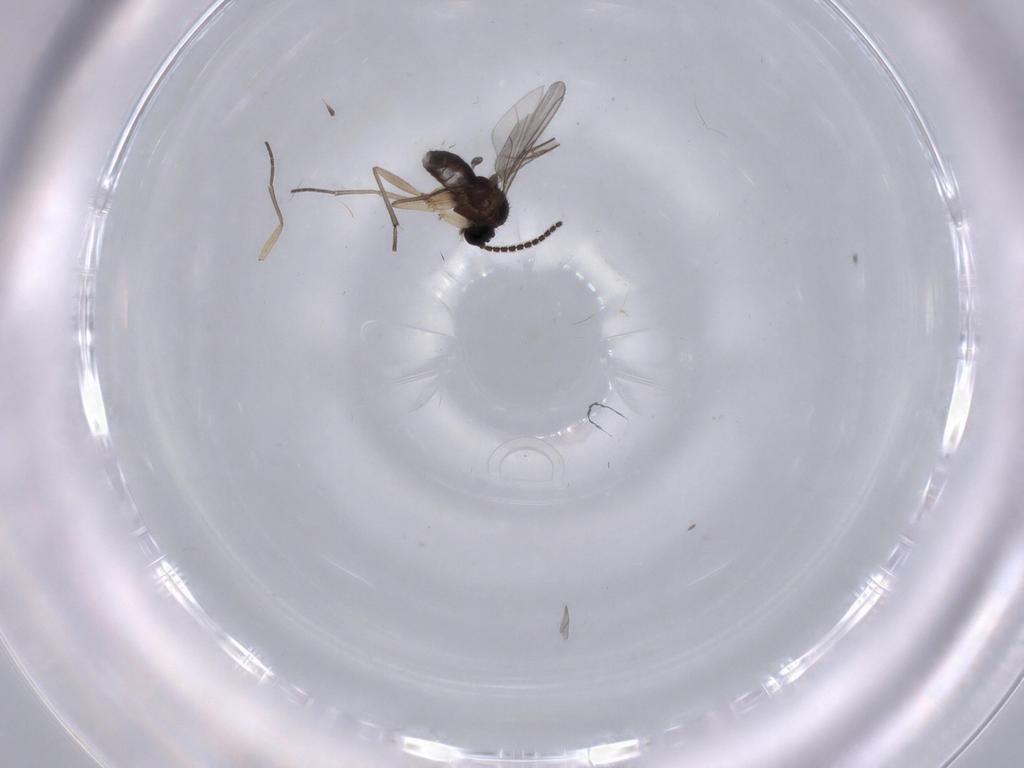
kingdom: Animalia
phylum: Arthropoda
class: Insecta
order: Diptera
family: Sciaridae
